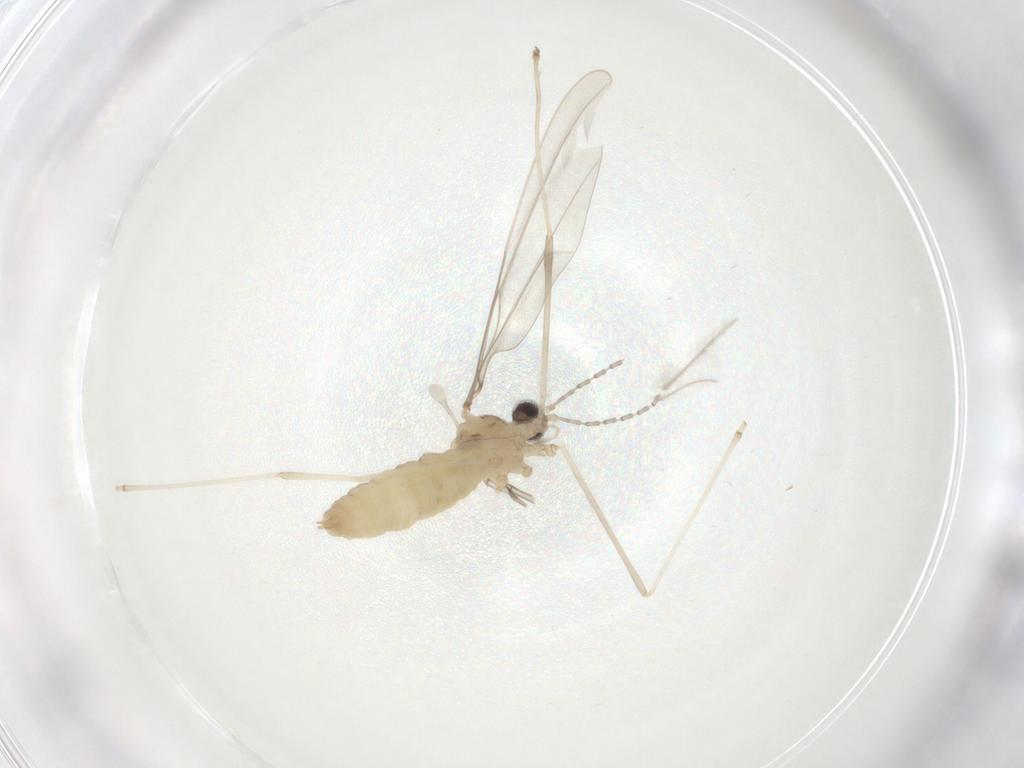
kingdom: Animalia
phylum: Arthropoda
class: Insecta
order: Diptera
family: Cecidomyiidae
